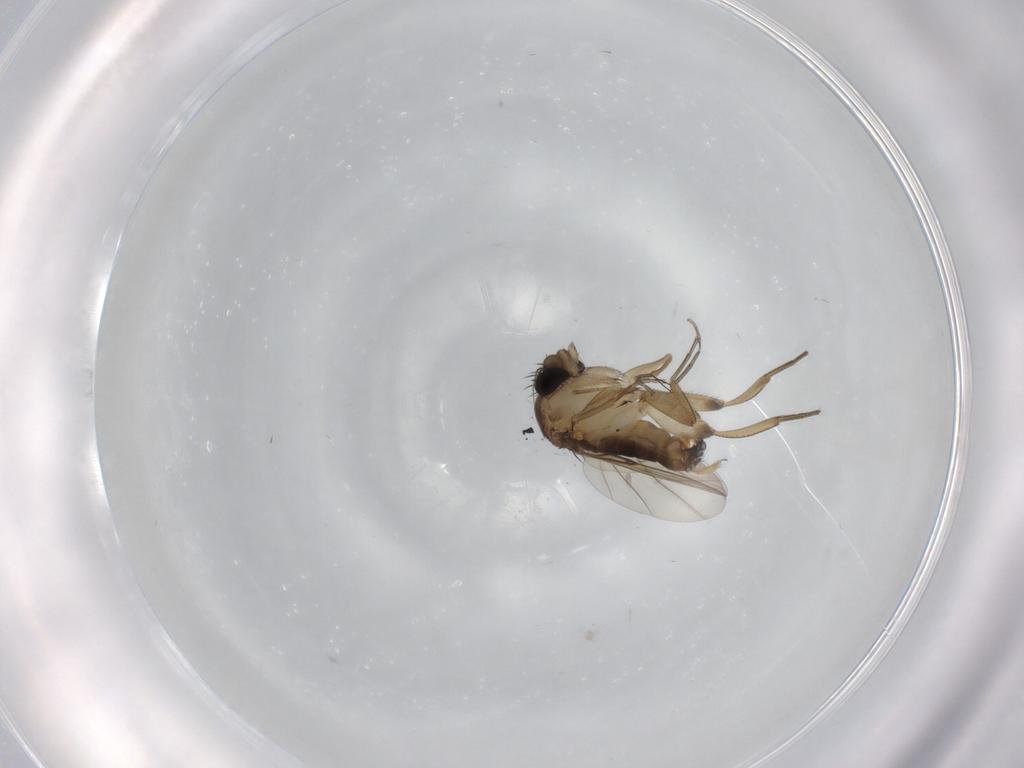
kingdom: Animalia
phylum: Arthropoda
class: Insecta
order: Diptera
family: Phoridae
